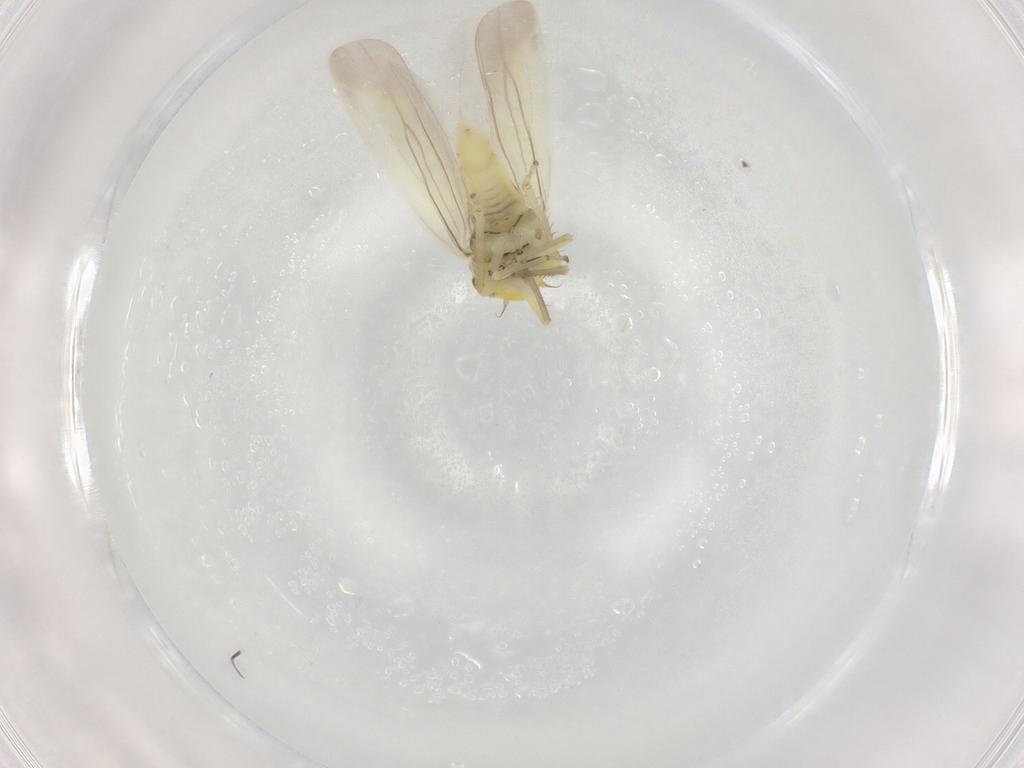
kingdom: Animalia
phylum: Arthropoda
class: Insecta
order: Hemiptera
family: Cicadellidae
